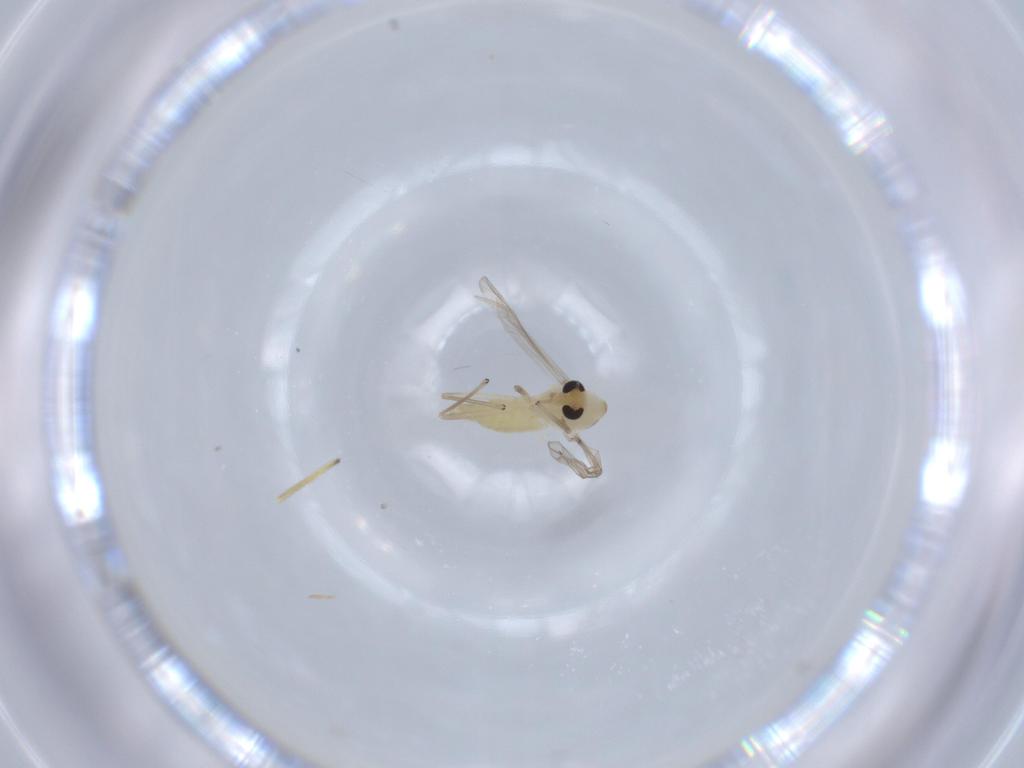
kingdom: Animalia
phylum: Arthropoda
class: Insecta
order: Diptera
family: Chironomidae
